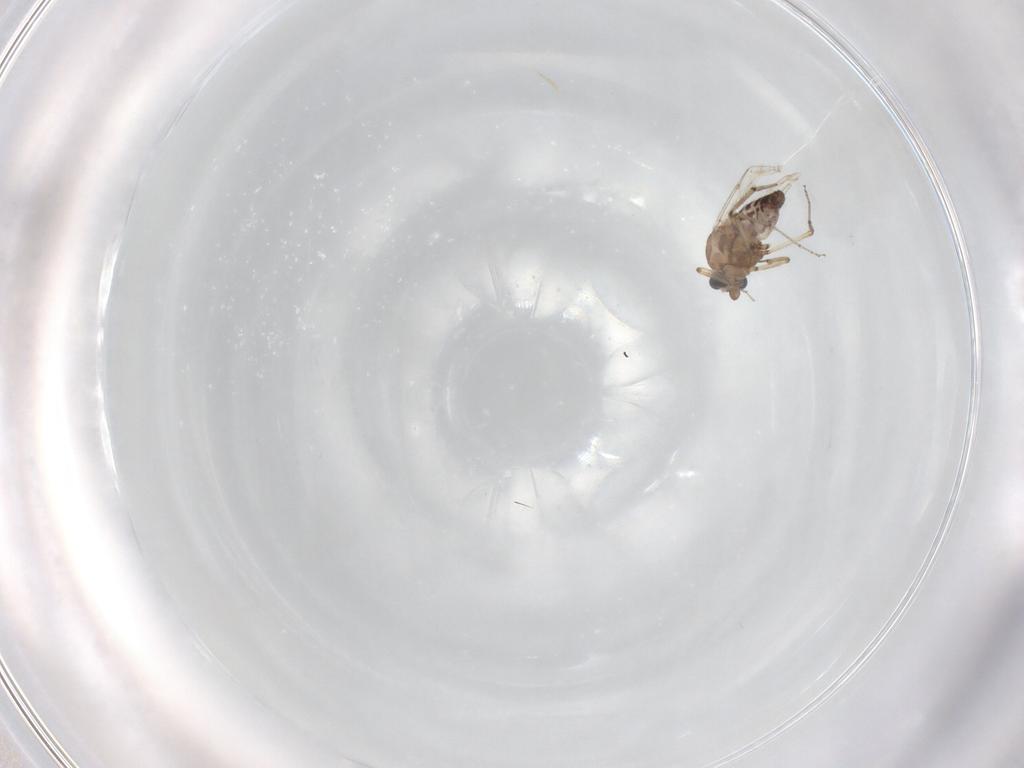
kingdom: Animalia
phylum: Arthropoda
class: Insecta
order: Diptera
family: Ceratopogonidae
